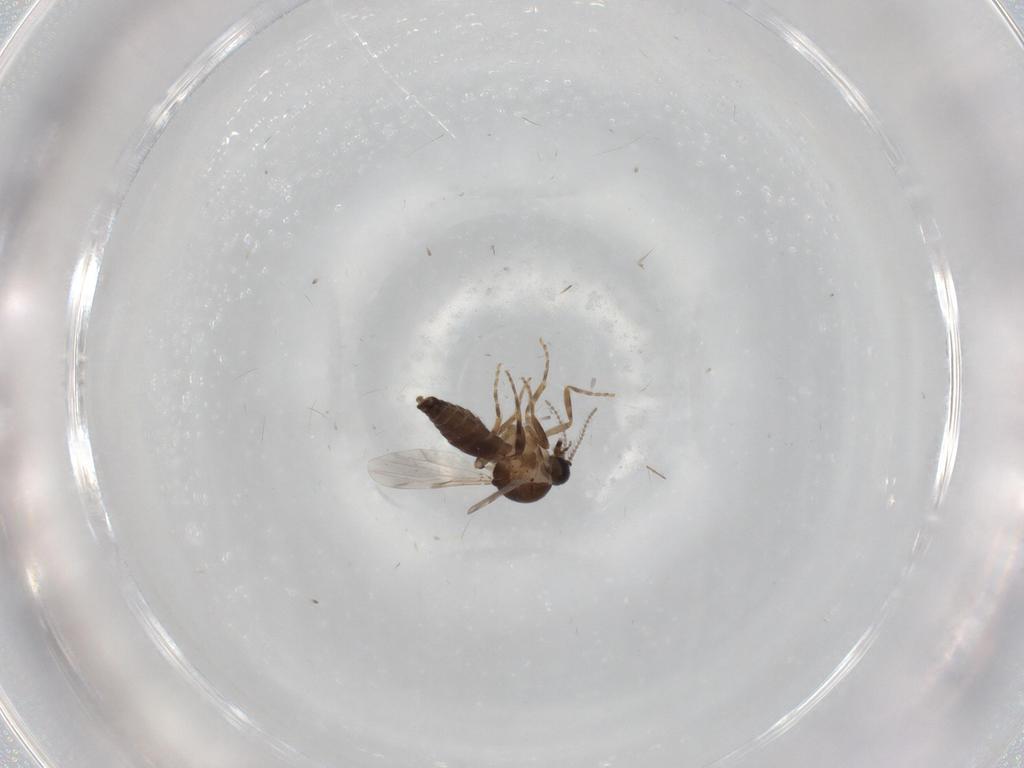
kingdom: Animalia
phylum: Arthropoda
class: Insecta
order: Diptera
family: Ceratopogonidae
